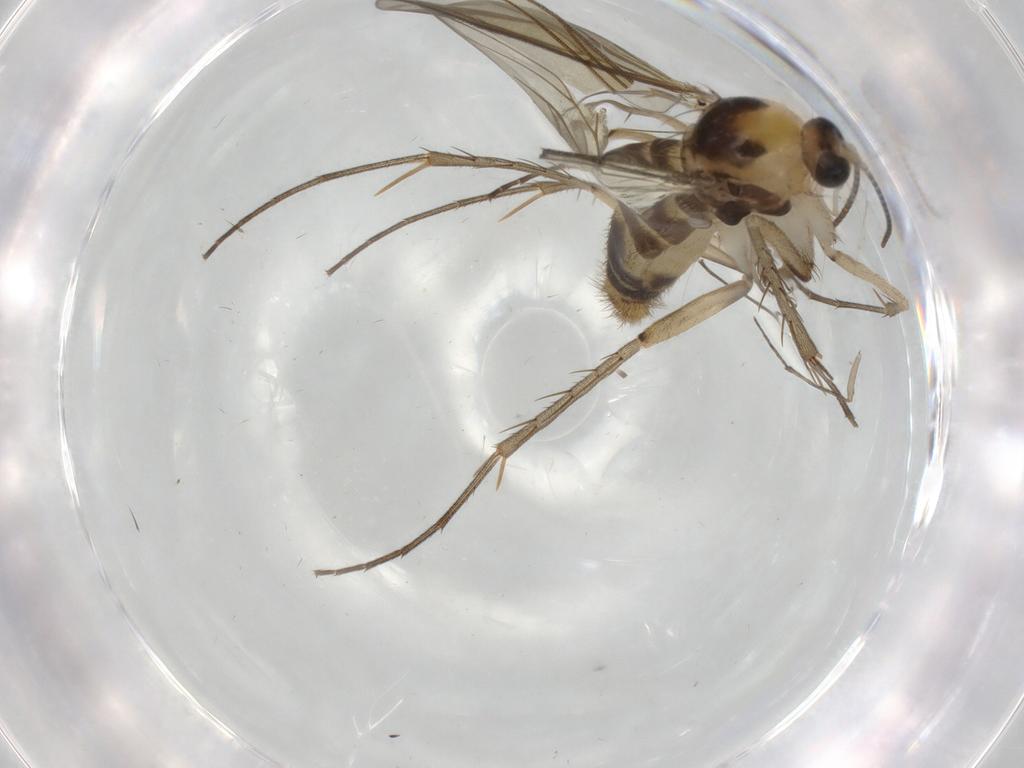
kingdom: Animalia
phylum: Arthropoda
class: Insecta
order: Diptera
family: Mycetophilidae
